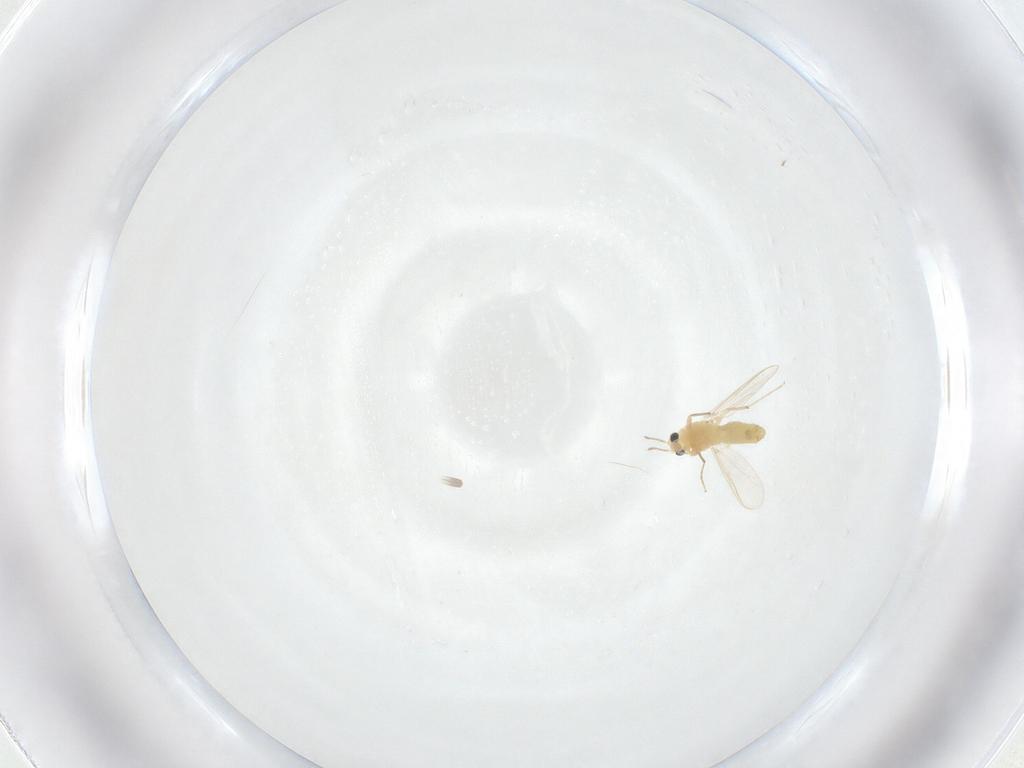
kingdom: Animalia
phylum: Arthropoda
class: Insecta
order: Diptera
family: Chironomidae
